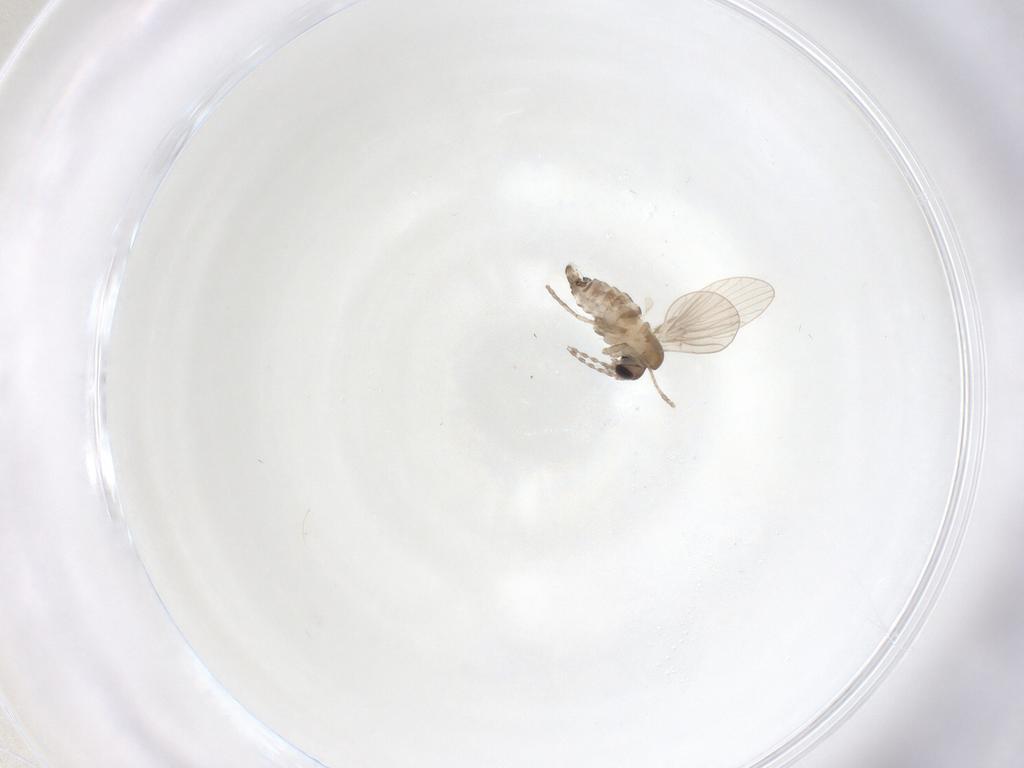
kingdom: Animalia
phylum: Arthropoda
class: Insecta
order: Diptera
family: Psychodidae
